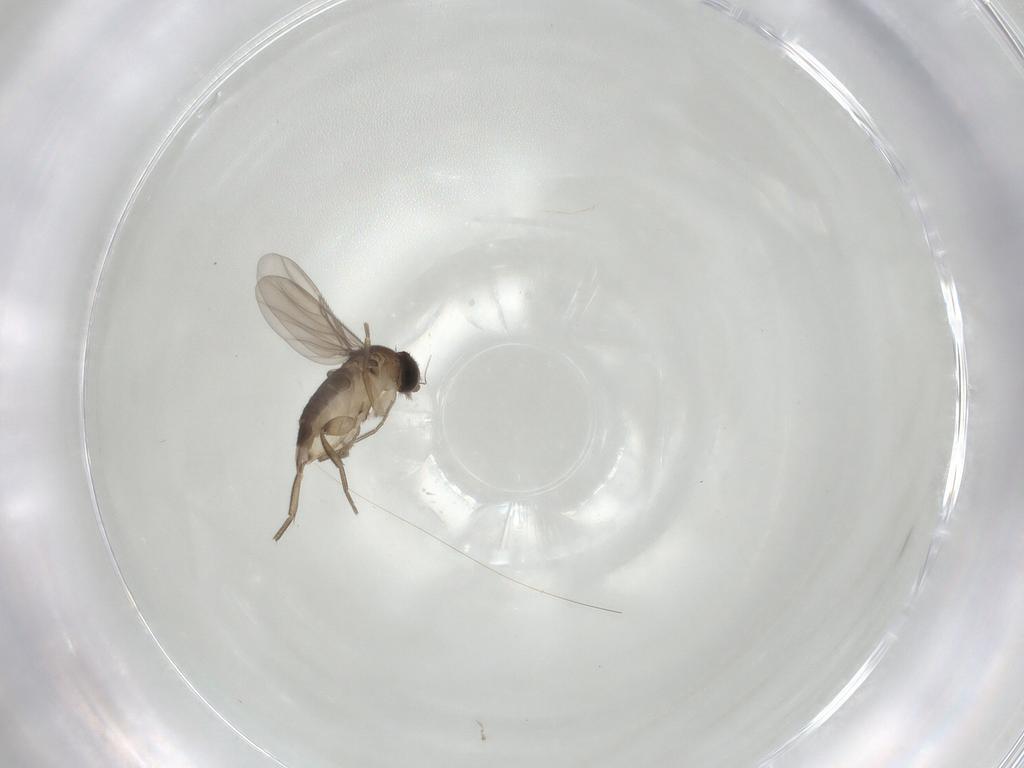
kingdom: Animalia
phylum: Arthropoda
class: Insecta
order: Diptera
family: Phoridae
